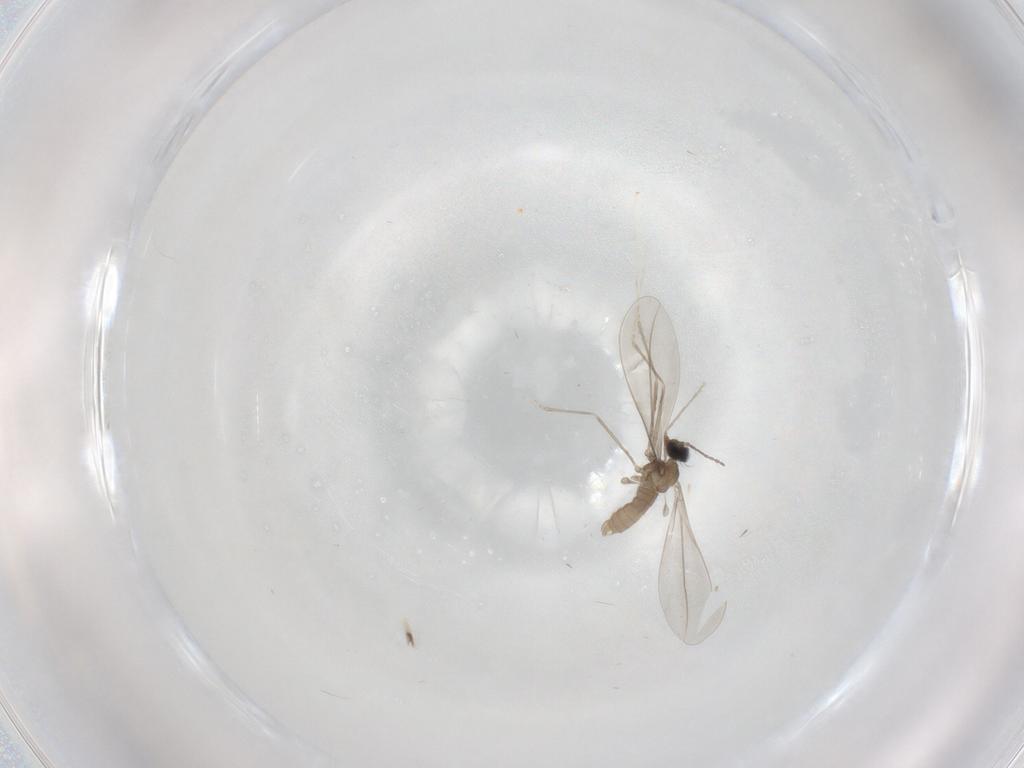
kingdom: Animalia
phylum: Arthropoda
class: Insecta
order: Diptera
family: Cecidomyiidae
